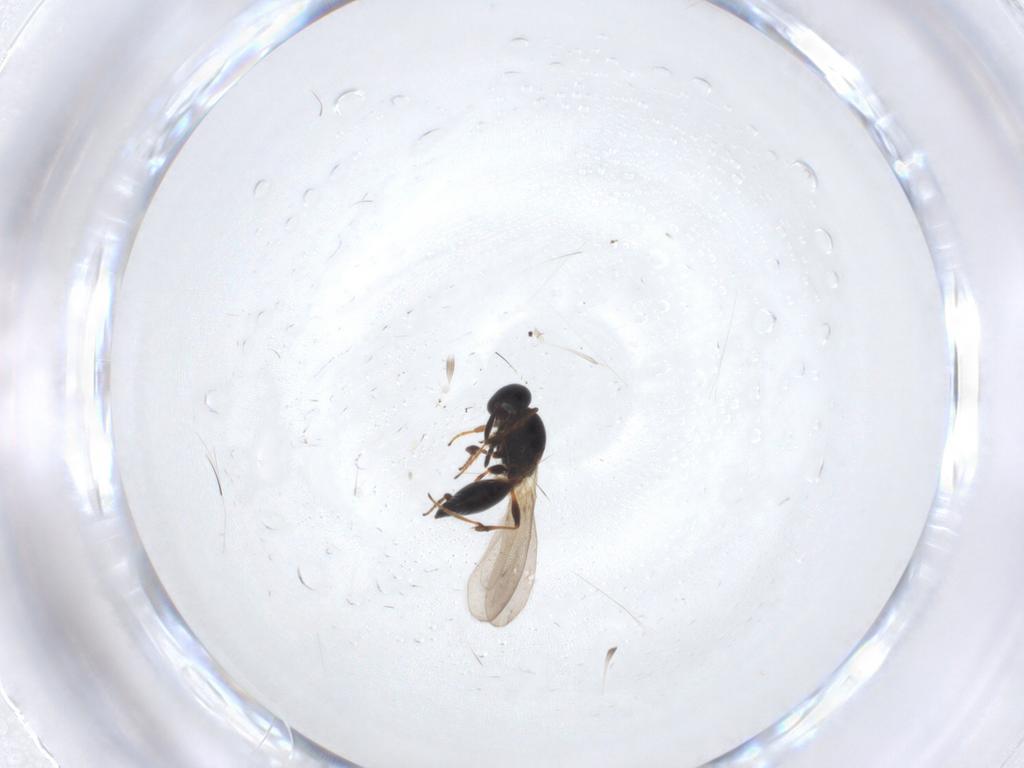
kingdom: Animalia
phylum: Arthropoda
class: Insecta
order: Hymenoptera
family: Platygastridae
